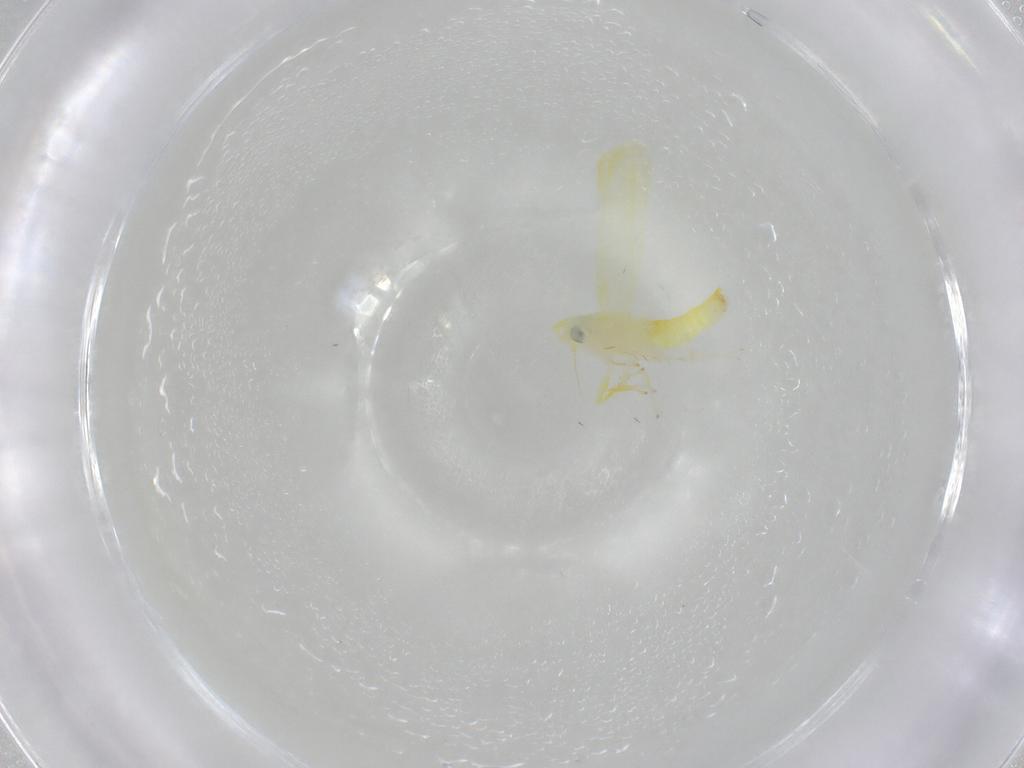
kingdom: Animalia
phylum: Arthropoda
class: Insecta
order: Hemiptera
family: Cicadellidae
